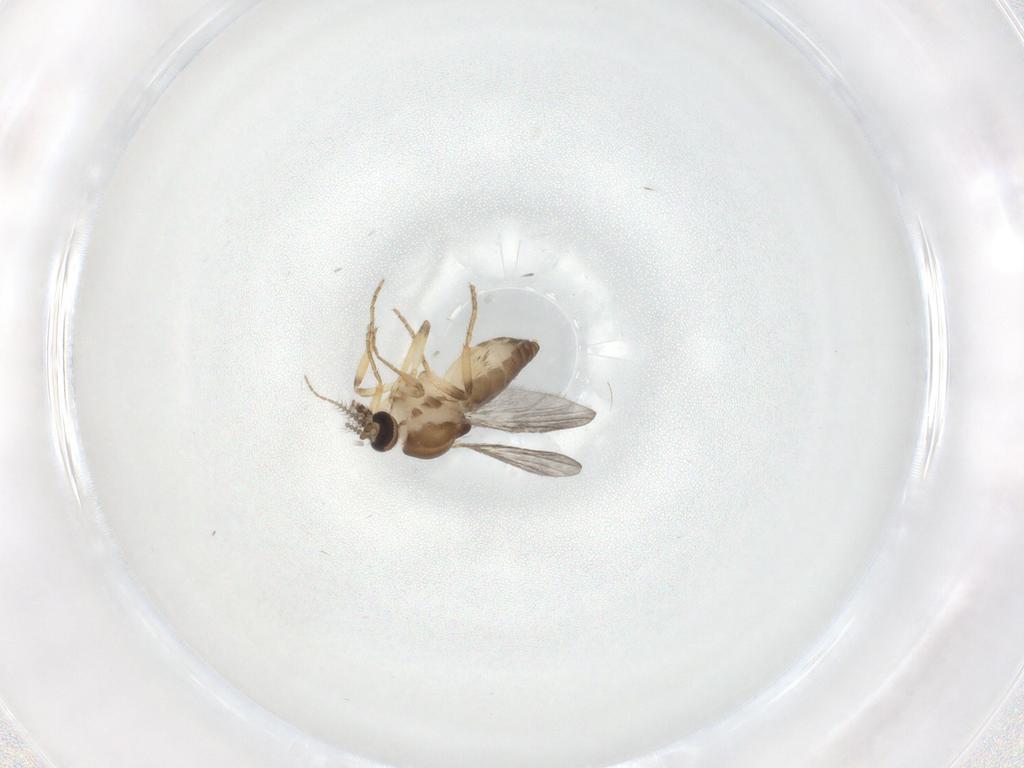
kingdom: Animalia
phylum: Arthropoda
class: Insecta
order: Diptera
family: Ceratopogonidae
